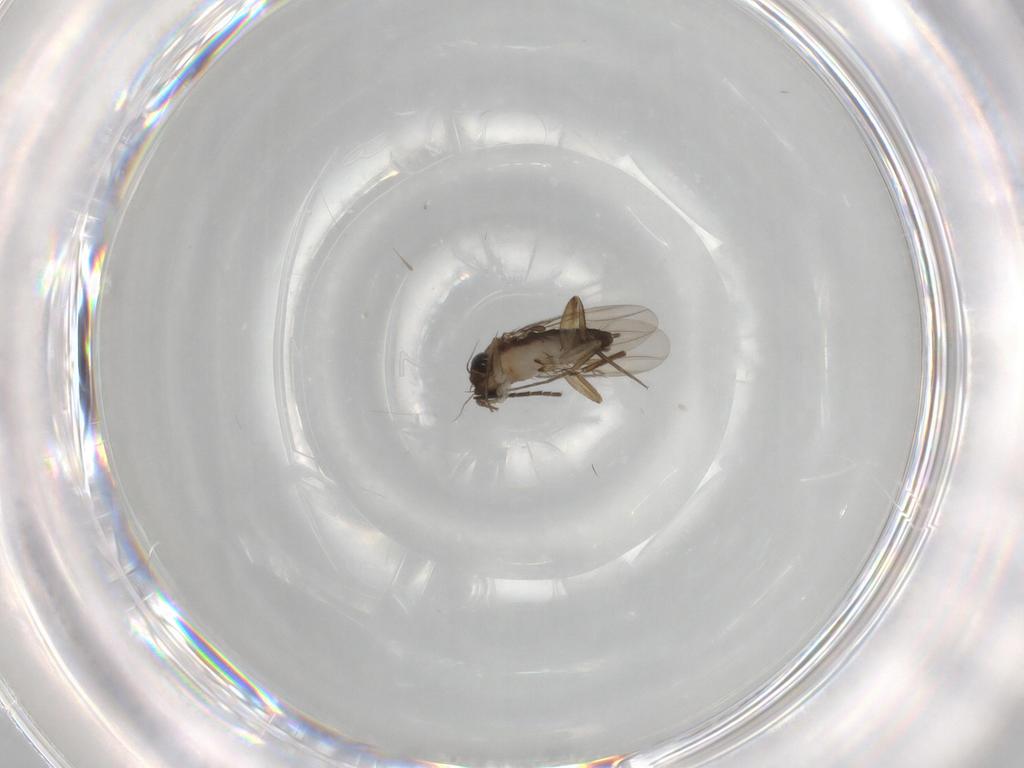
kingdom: Animalia
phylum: Arthropoda
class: Insecta
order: Diptera
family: Phoridae
